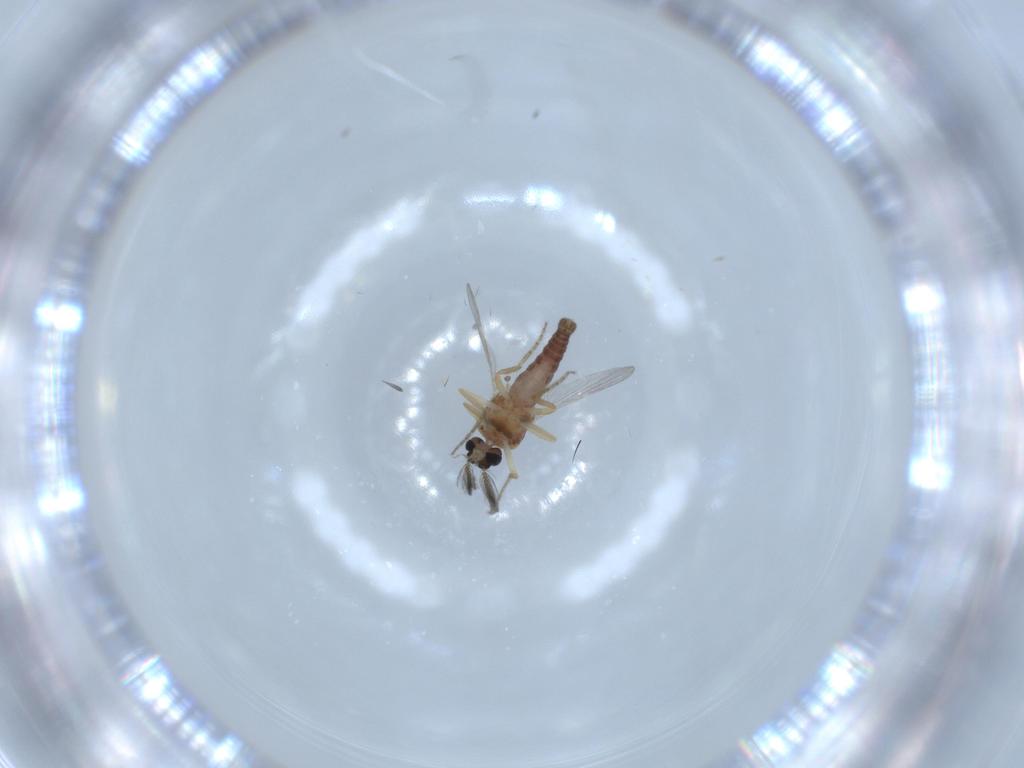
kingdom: Animalia
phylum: Arthropoda
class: Insecta
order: Diptera
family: Ceratopogonidae
